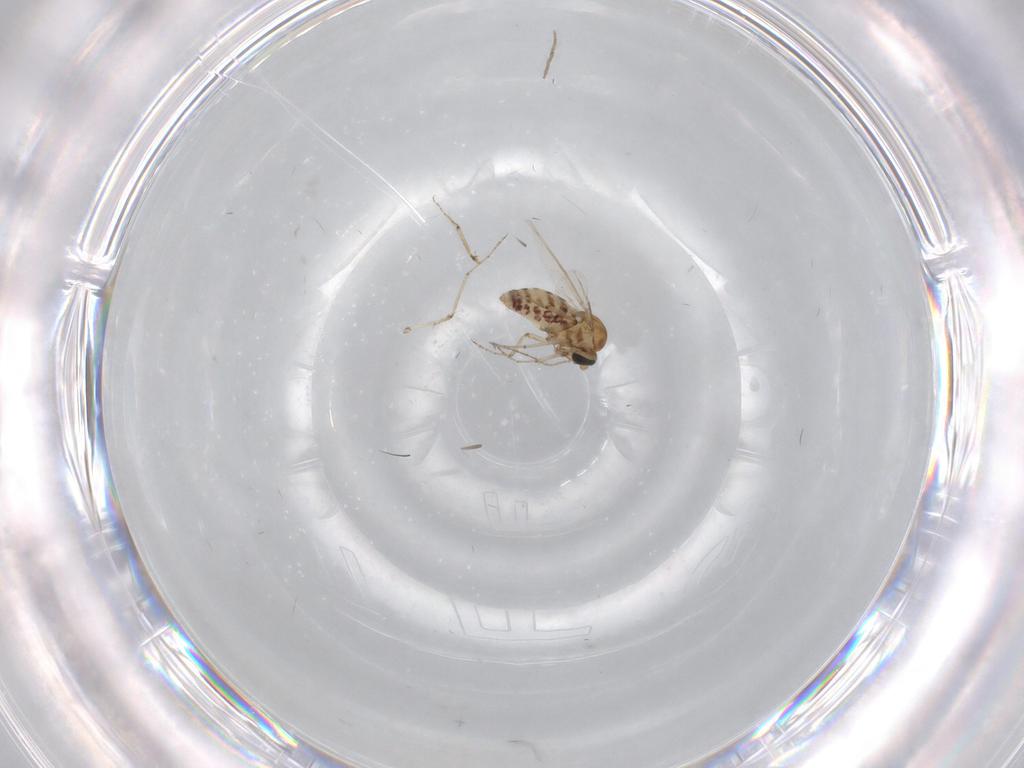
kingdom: Animalia
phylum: Arthropoda
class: Insecta
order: Diptera
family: Ceratopogonidae
